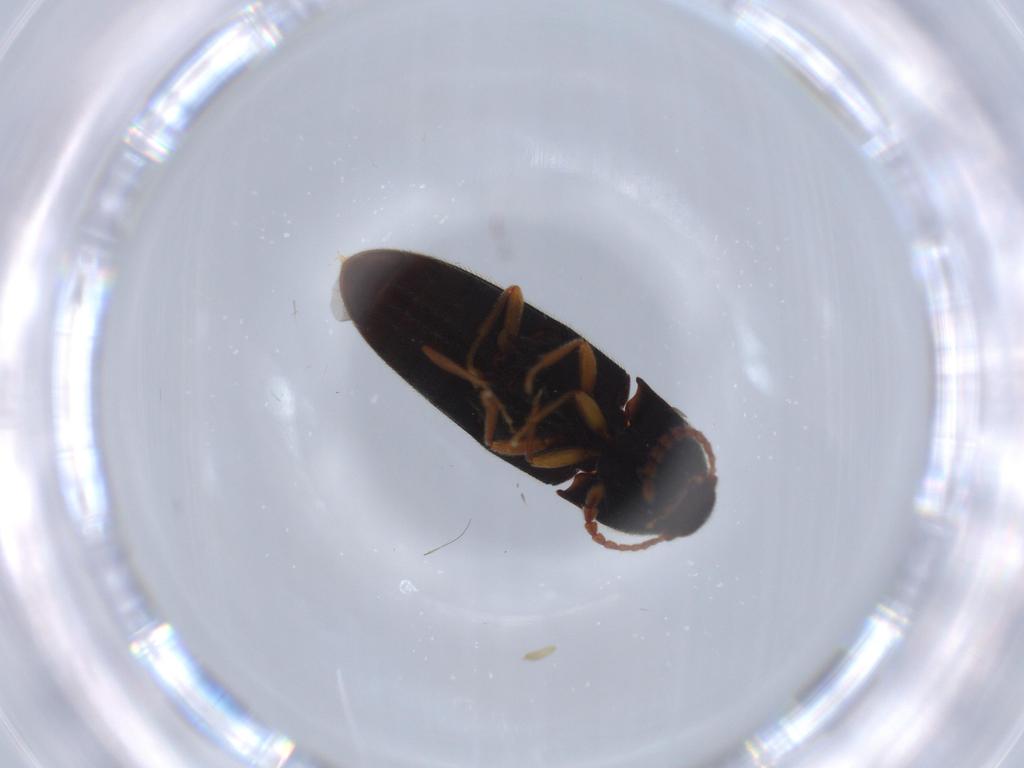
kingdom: Animalia
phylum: Arthropoda
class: Insecta
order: Coleoptera
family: Elateridae
